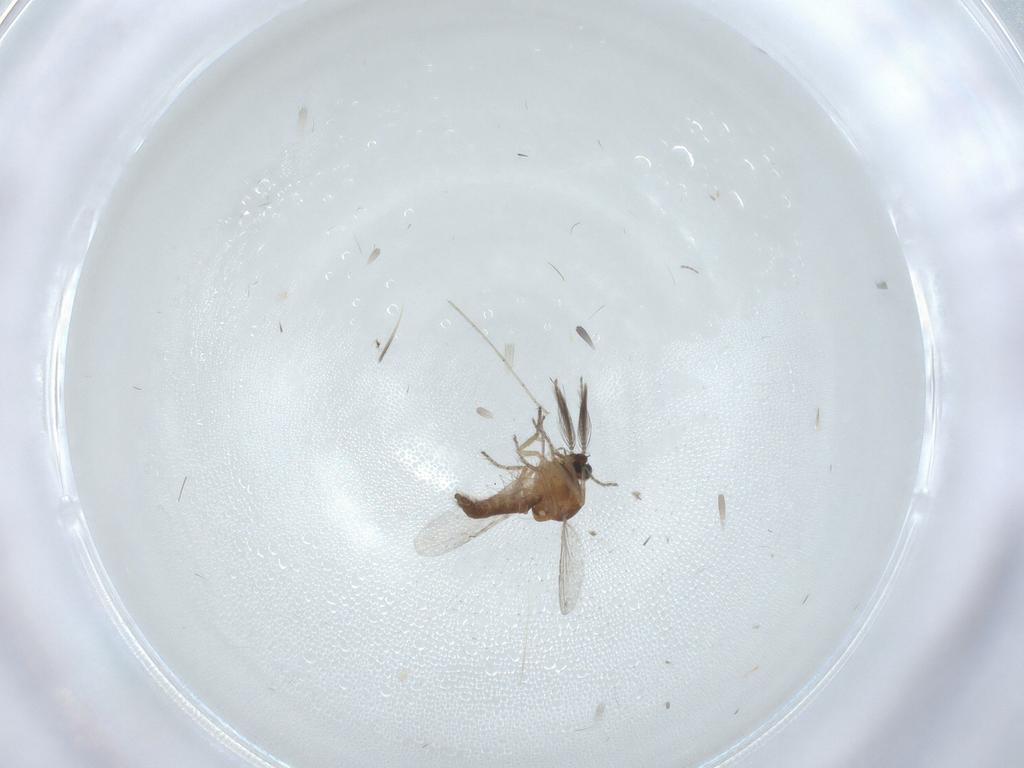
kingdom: Animalia
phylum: Arthropoda
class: Insecta
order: Diptera
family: Ceratopogonidae
